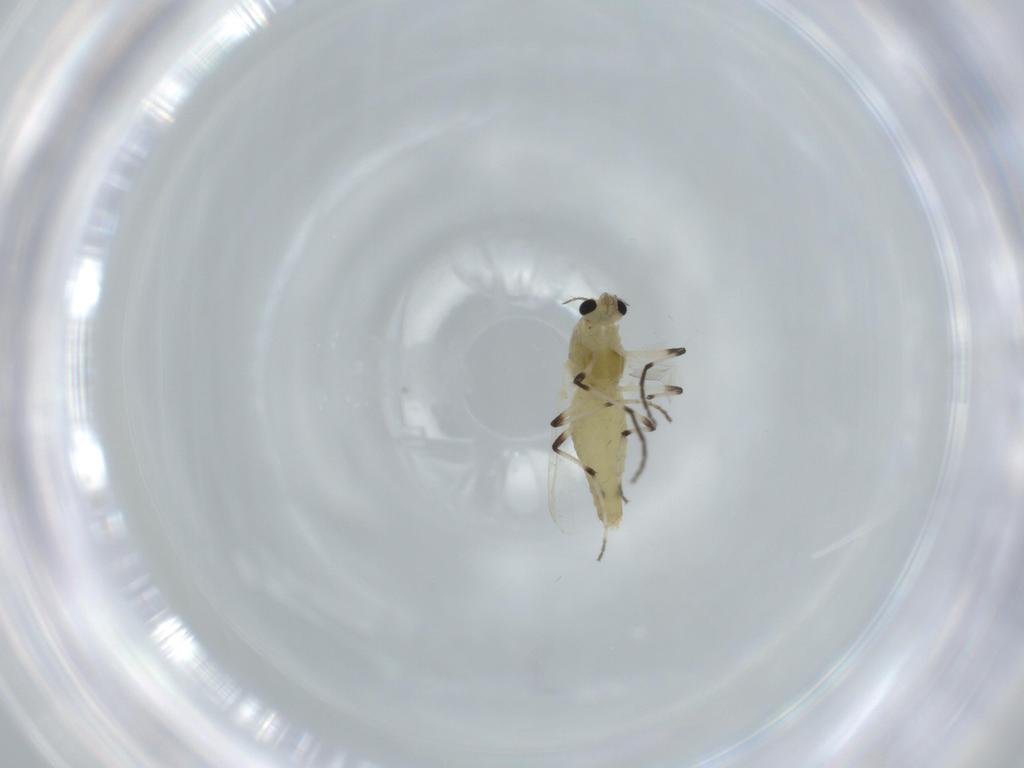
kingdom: Animalia
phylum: Arthropoda
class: Insecta
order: Diptera
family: Chironomidae
